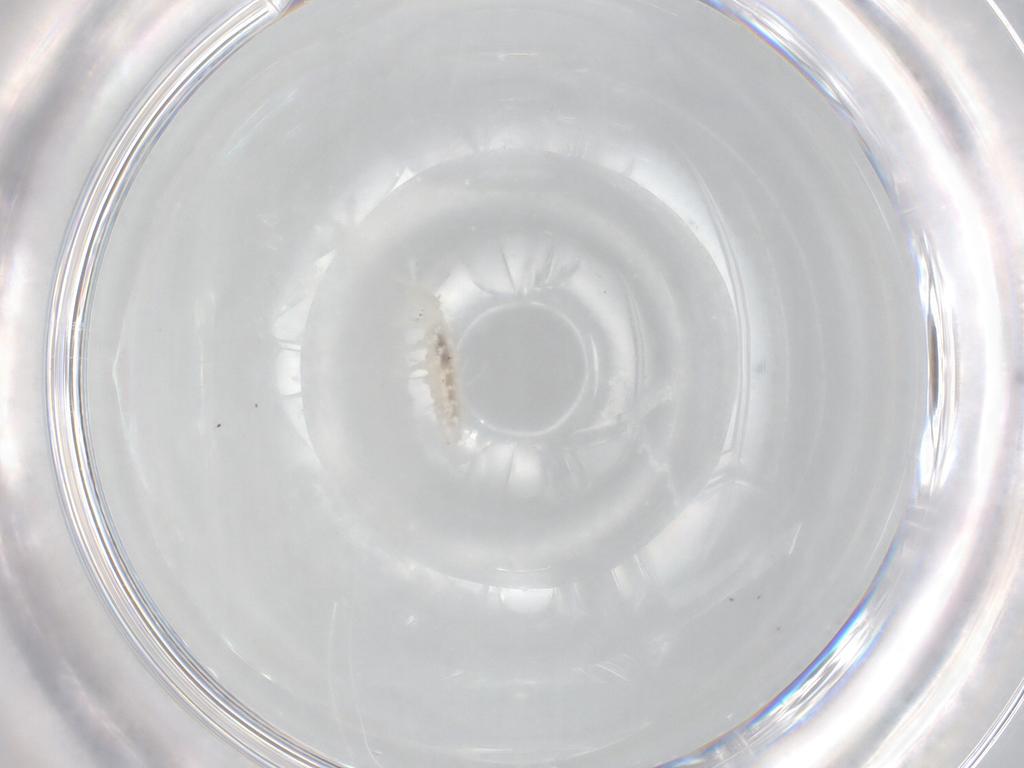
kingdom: Animalia
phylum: Arthropoda
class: Collembola
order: Poduromorpha
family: Onychiuridae
